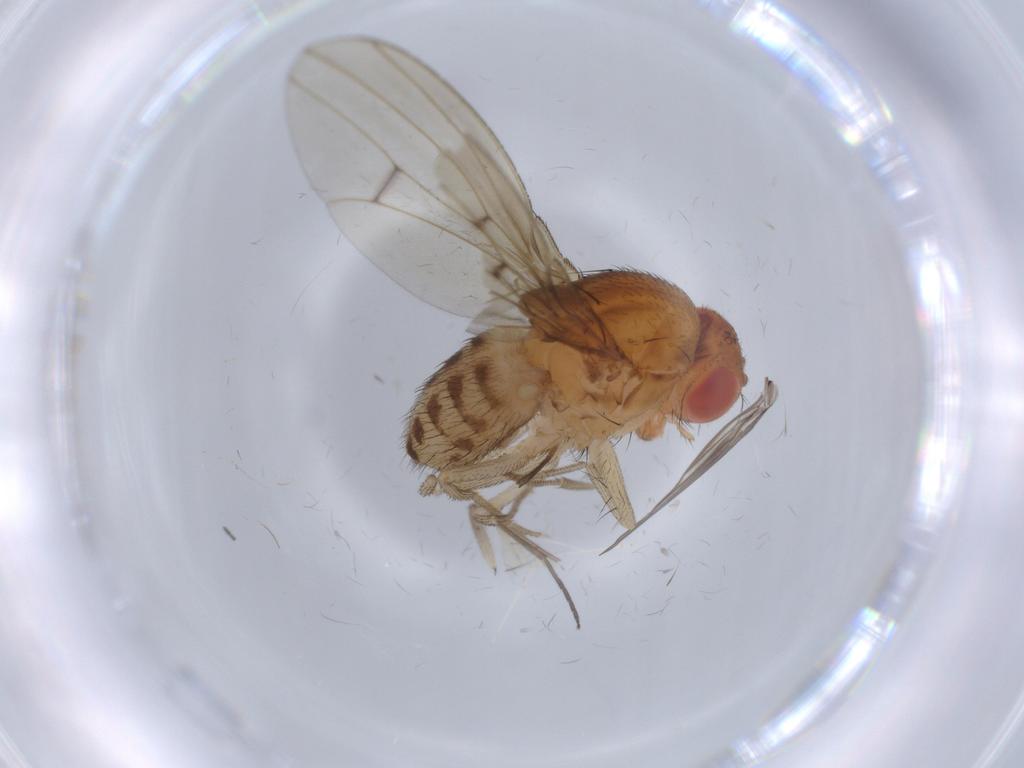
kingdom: Animalia
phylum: Arthropoda
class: Insecta
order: Diptera
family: Drosophilidae
